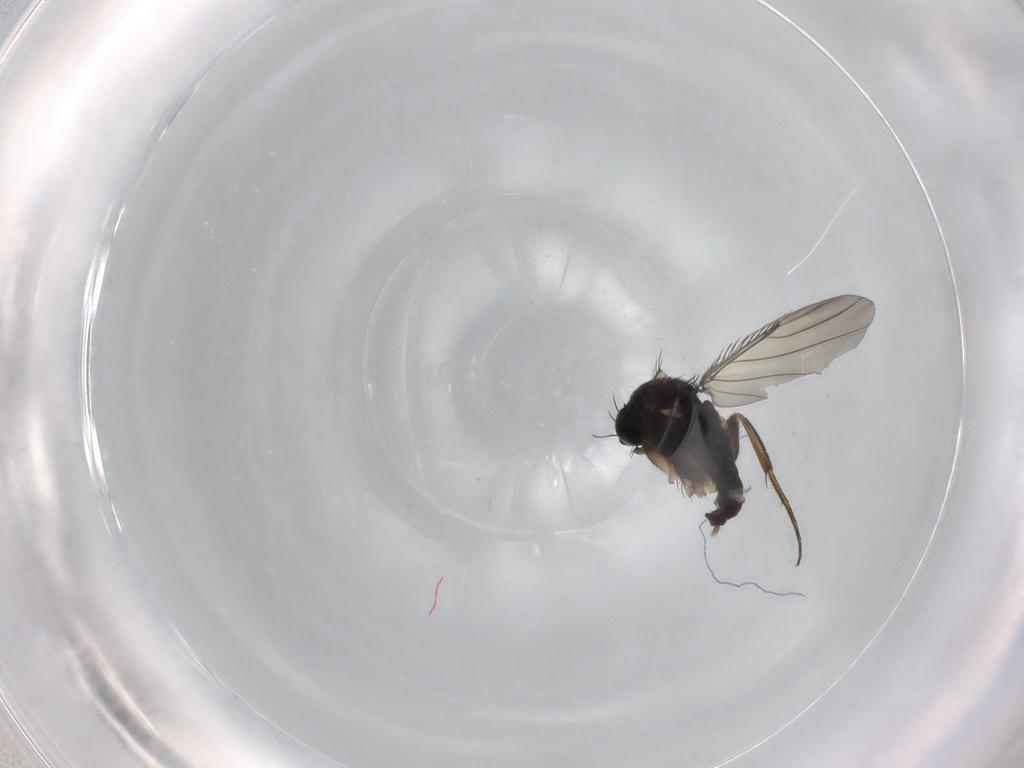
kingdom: Animalia
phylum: Arthropoda
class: Insecta
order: Diptera
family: Phoridae
